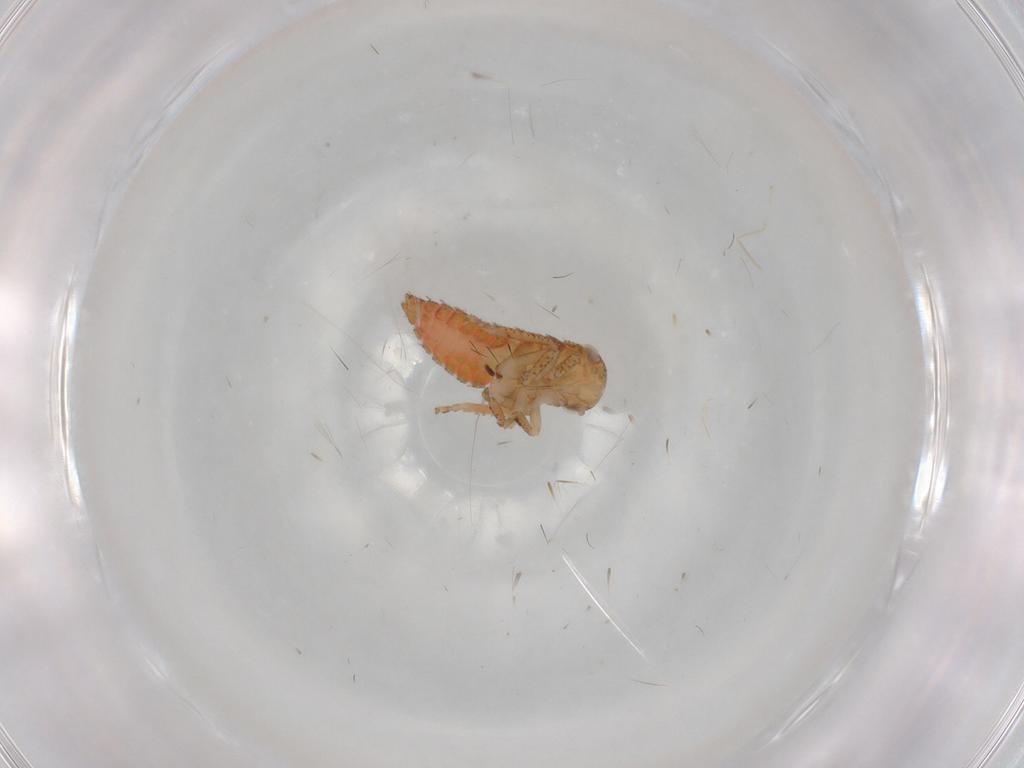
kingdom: Animalia
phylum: Arthropoda
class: Insecta
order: Hemiptera
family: Tropiduchidae
